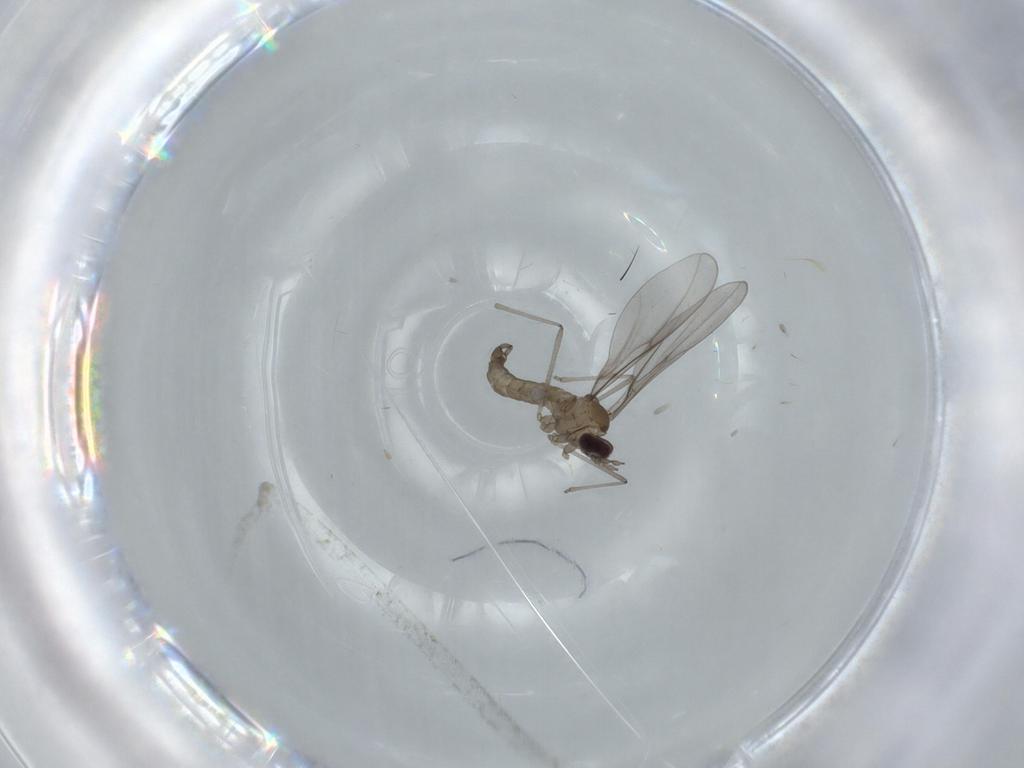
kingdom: Animalia
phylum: Arthropoda
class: Insecta
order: Diptera
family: Cecidomyiidae
